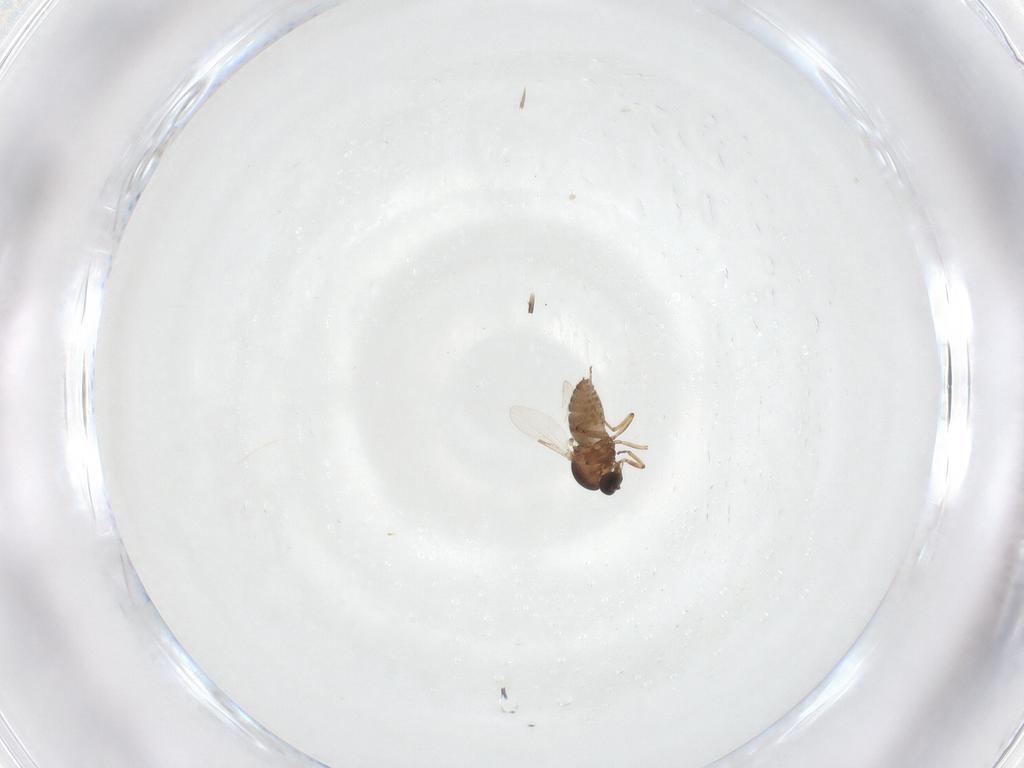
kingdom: Animalia
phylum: Arthropoda
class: Insecta
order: Diptera
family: Ceratopogonidae
